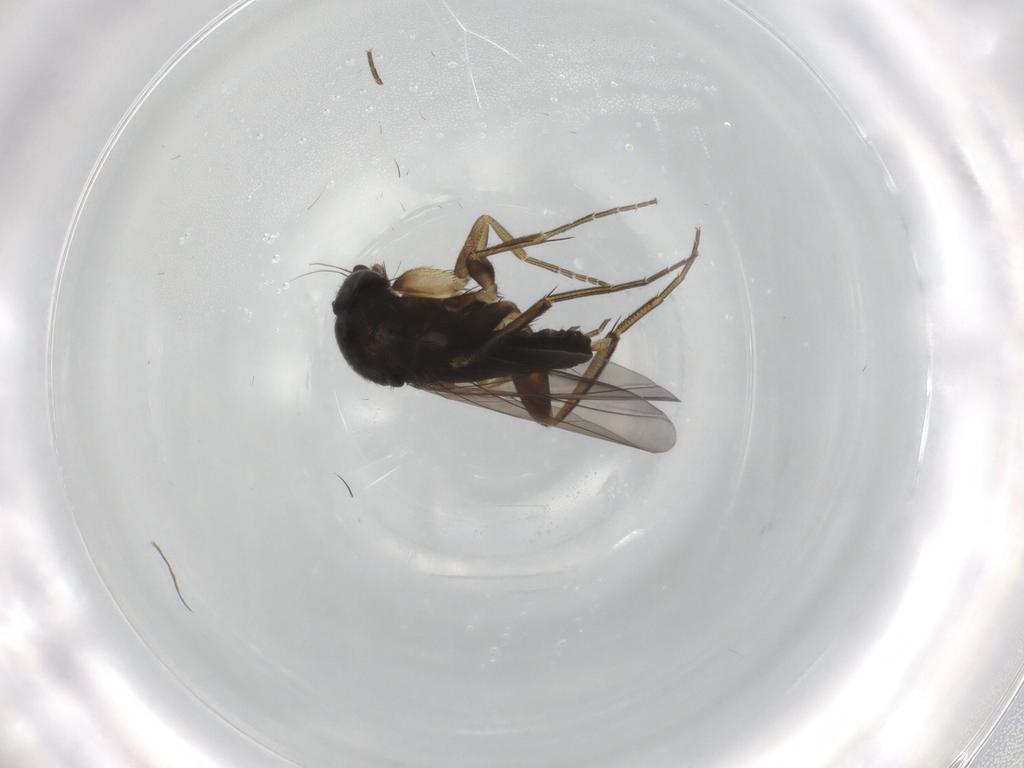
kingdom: Animalia
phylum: Arthropoda
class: Insecta
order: Diptera
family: Phoridae
